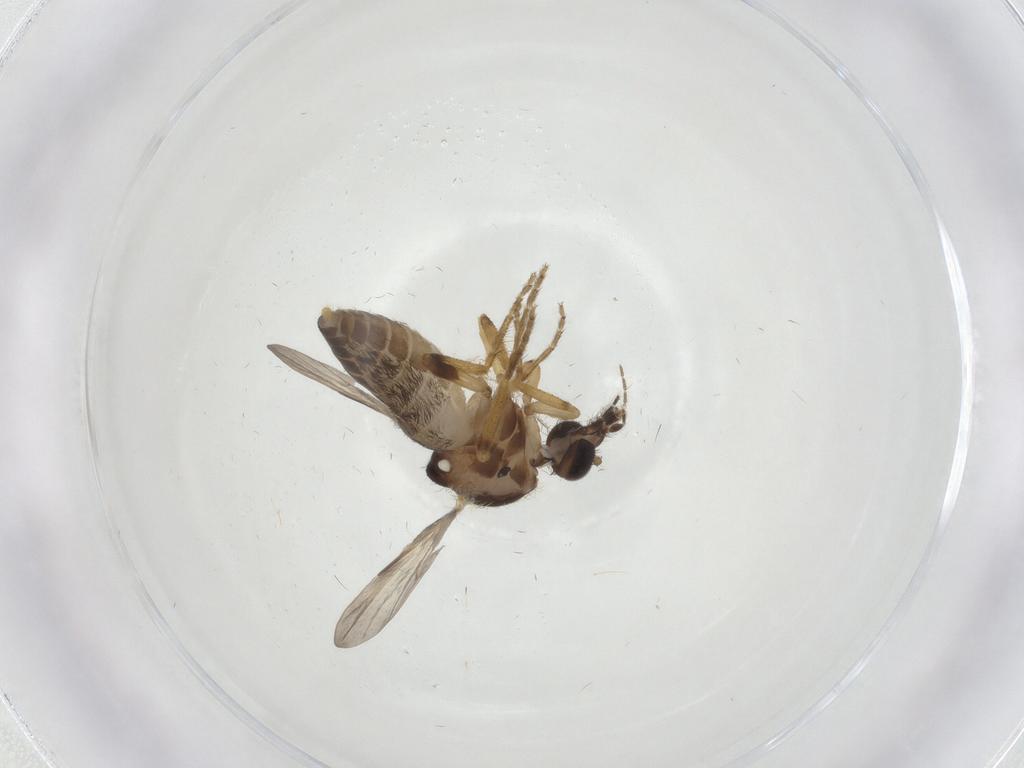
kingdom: Animalia
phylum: Arthropoda
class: Insecta
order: Diptera
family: Ceratopogonidae
